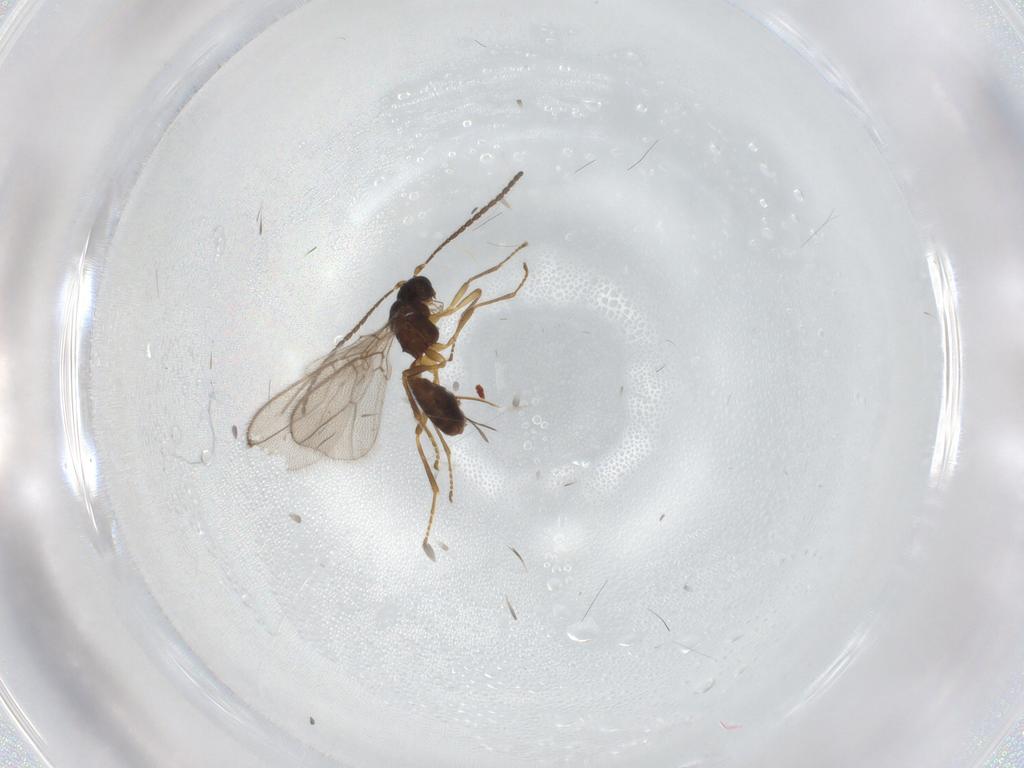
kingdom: Animalia
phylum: Arthropoda
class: Insecta
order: Hymenoptera
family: Braconidae
